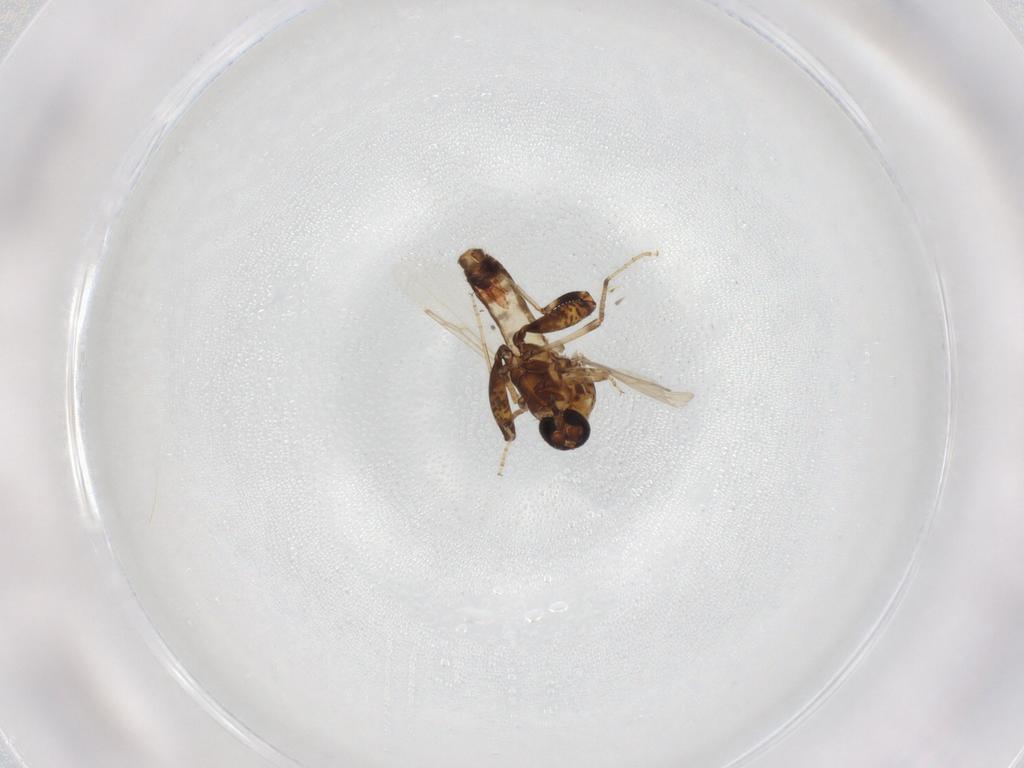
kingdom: Animalia
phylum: Arthropoda
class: Insecta
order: Diptera
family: Ceratopogonidae
